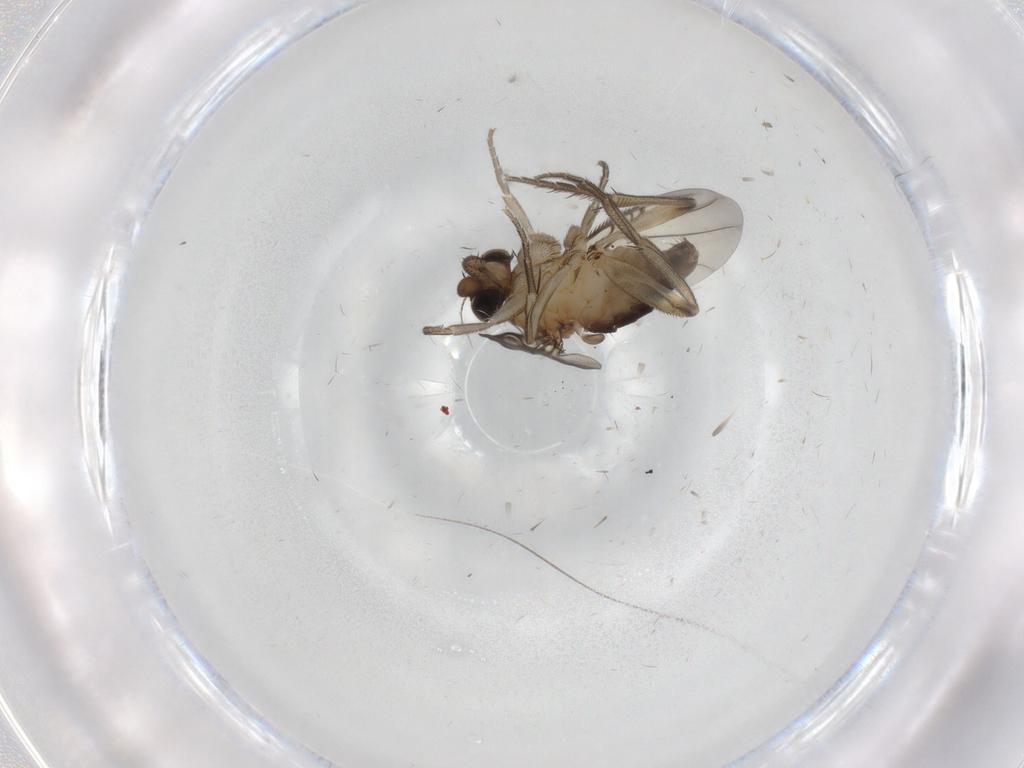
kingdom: Animalia
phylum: Arthropoda
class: Insecta
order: Diptera
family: Phoridae
